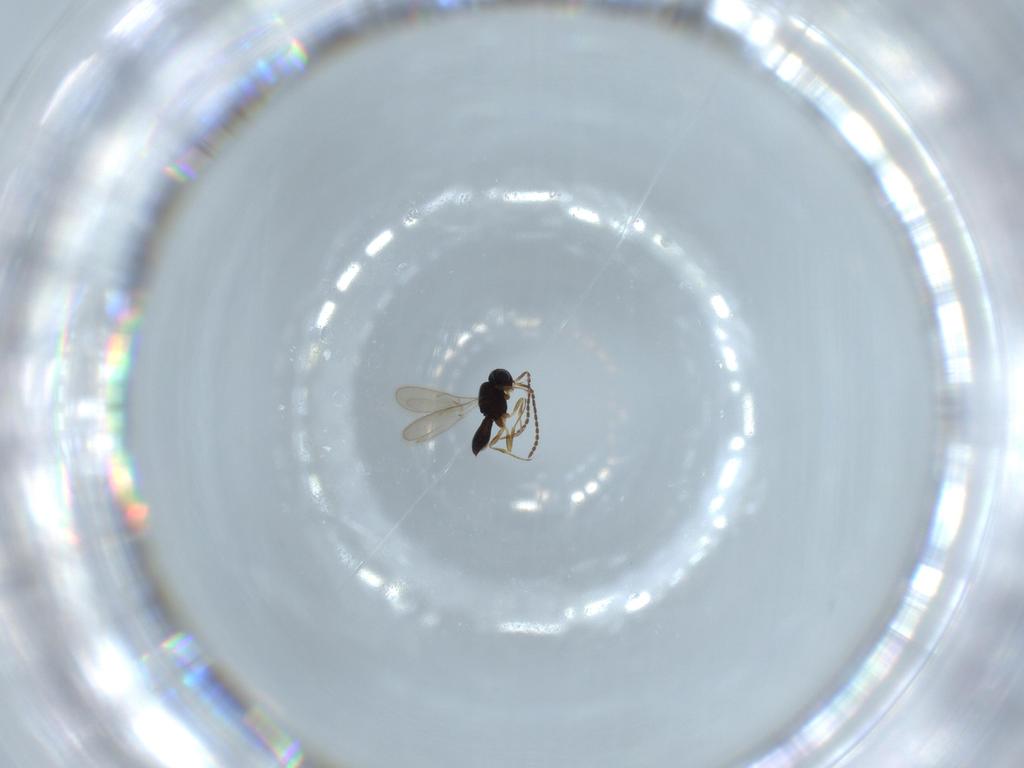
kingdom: Animalia
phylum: Arthropoda
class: Insecta
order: Hymenoptera
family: Scelionidae
